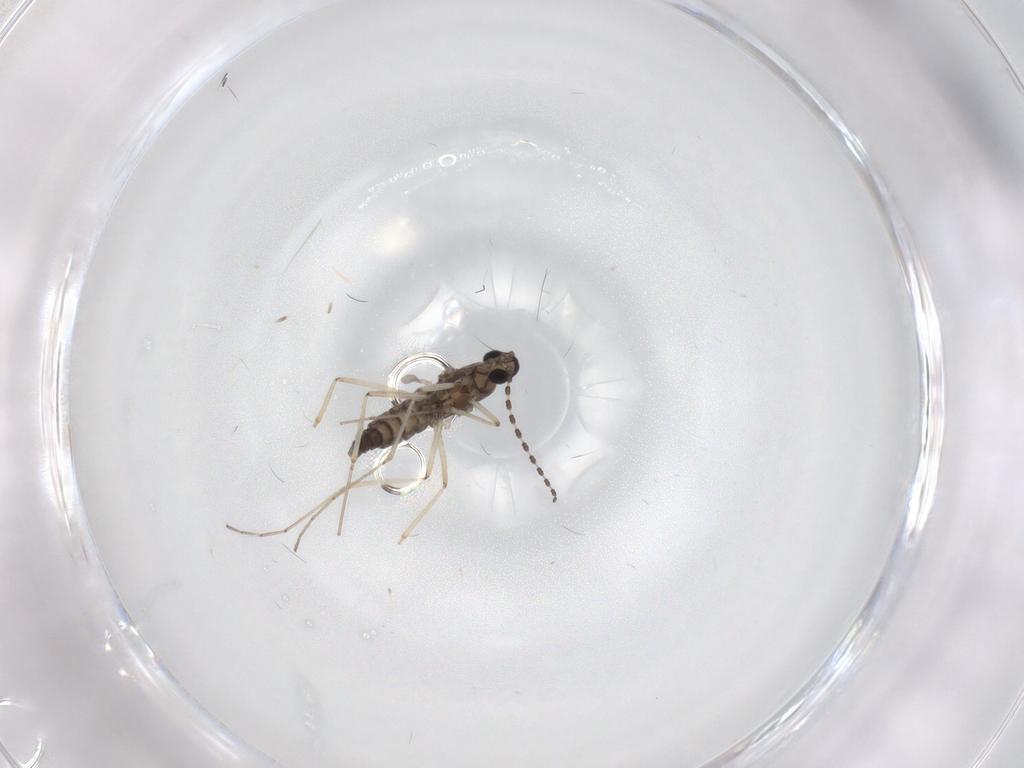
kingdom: Animalia
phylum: Arthropoda
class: Insecta
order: Diptera
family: Cecidomyiidae
